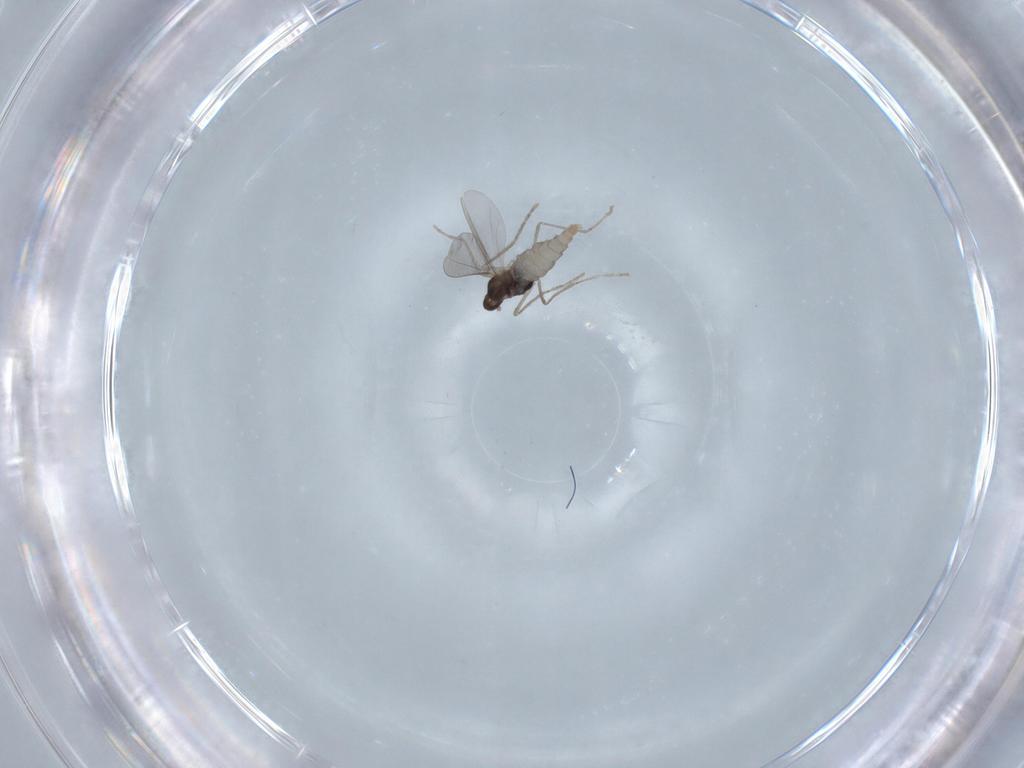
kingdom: Animalia
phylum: Arthropoda
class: Insecta
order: Diptera
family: Cecidomyiidae
